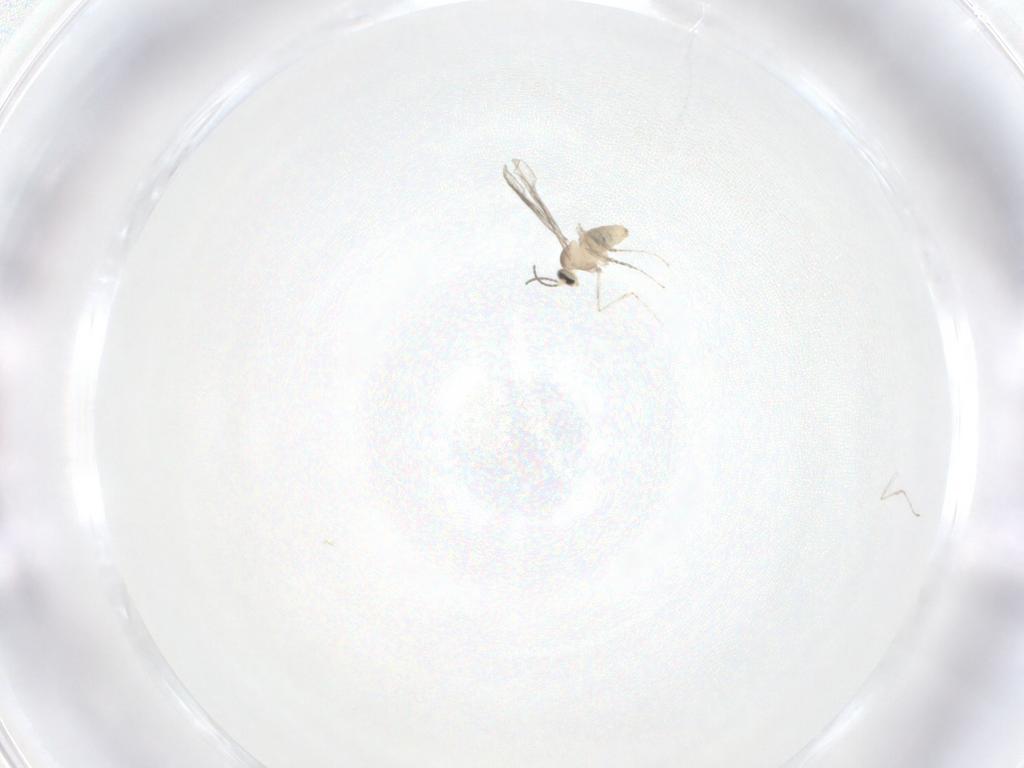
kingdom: Animalia
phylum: Arthropoda
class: Insecta
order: Diptera
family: Cecidomyiidae
